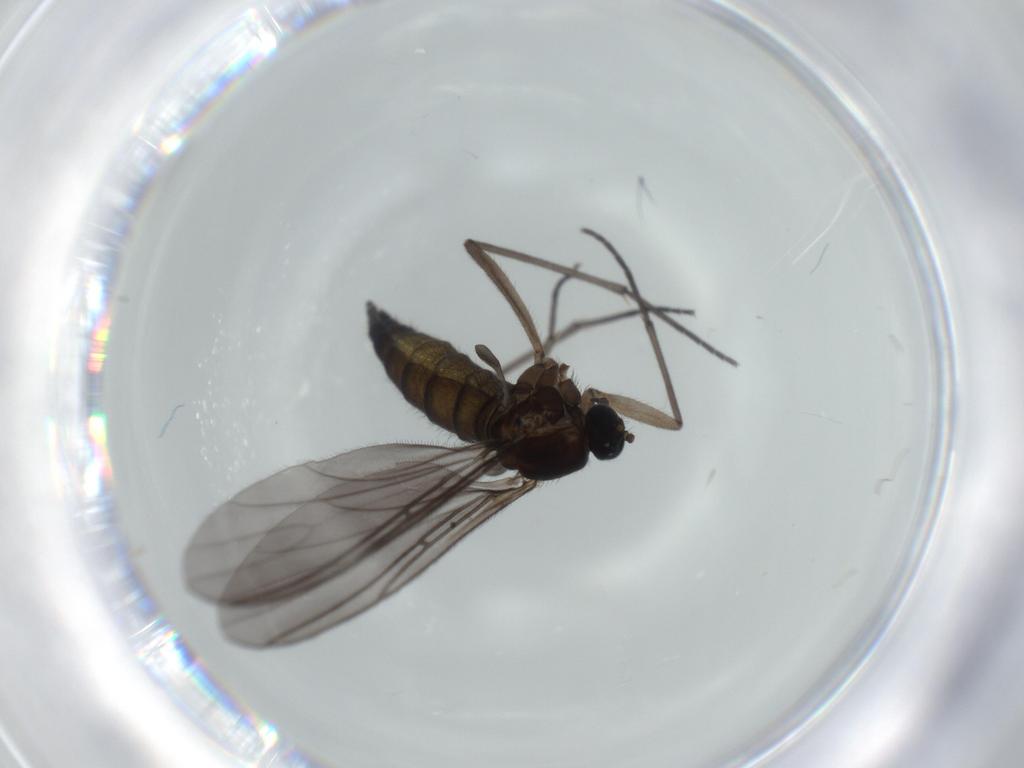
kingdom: Animalia
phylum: Arthropoda
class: Insecta
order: Diptera
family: Sciaridae
